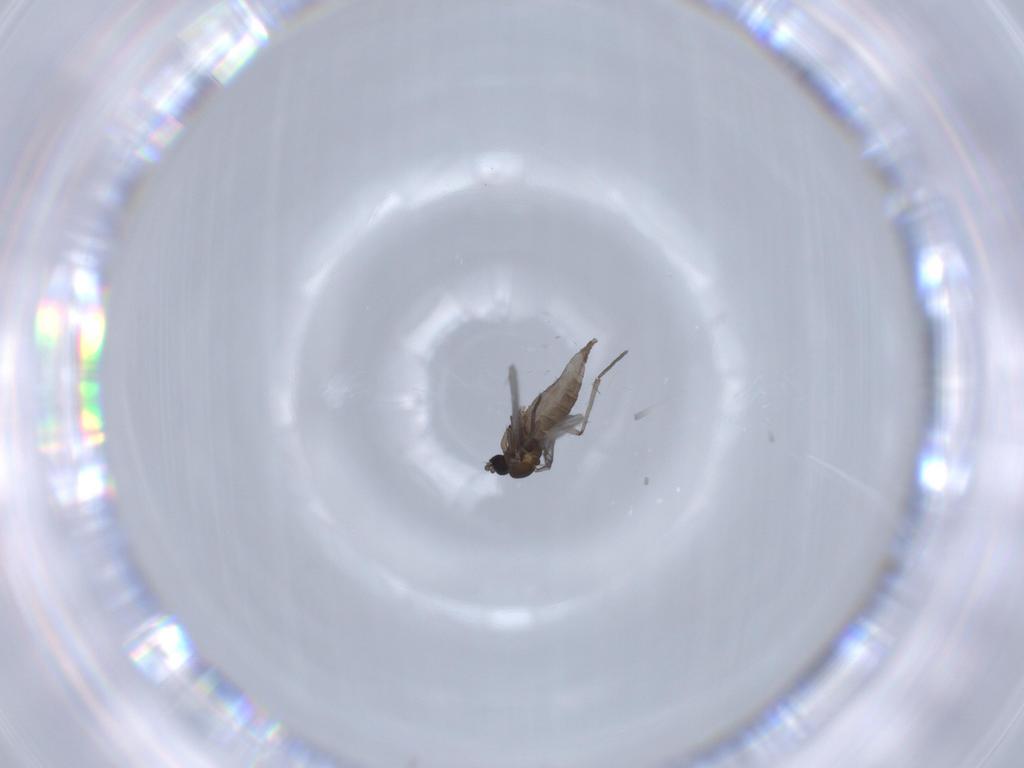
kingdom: Animalia
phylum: Arthropoda
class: Insecta
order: Diptera
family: Sciaridae
